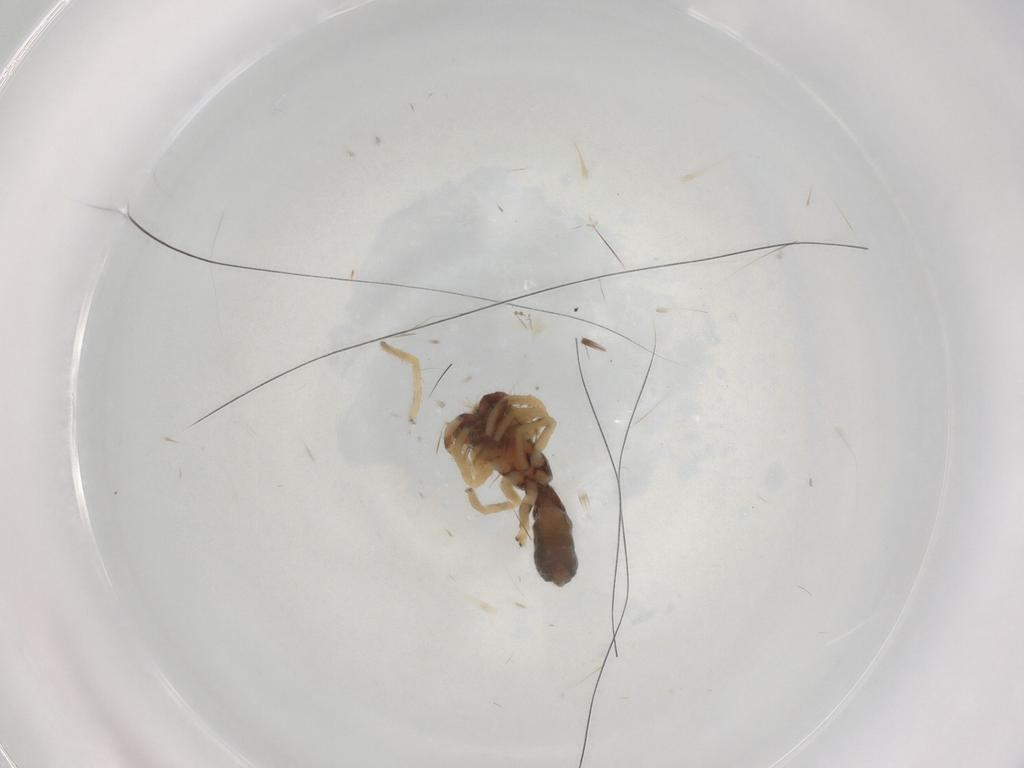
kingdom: Animalia
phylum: Arthropoda
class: Arachnida
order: Araneae
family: Salticidae
